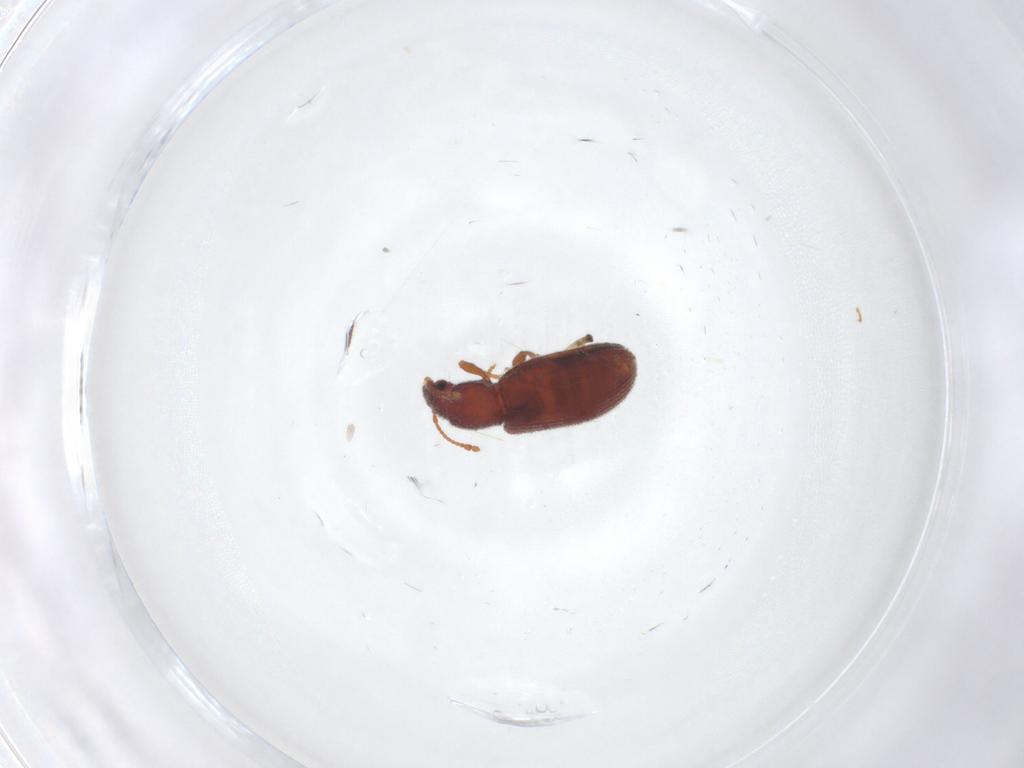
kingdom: Animalia
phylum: Arthropoda
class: Insecta
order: Coleoptera
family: Mycetophagidae
